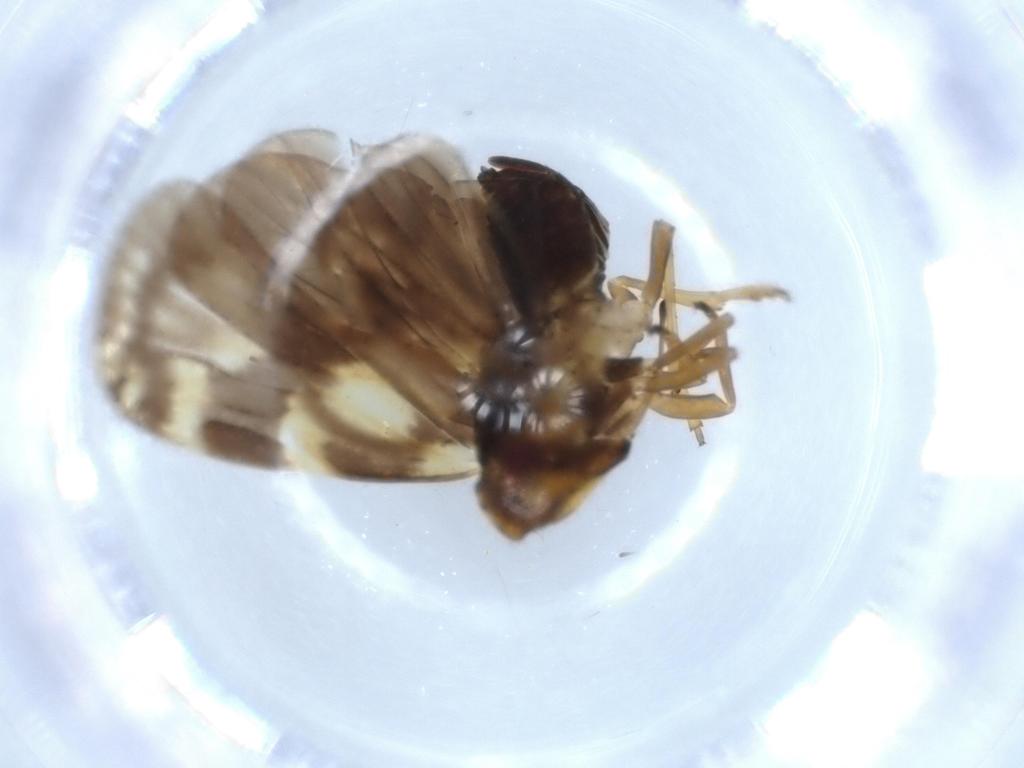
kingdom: Animalia
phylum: Arthropoda
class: Insecta
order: Hemiptera
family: Cixiidae
